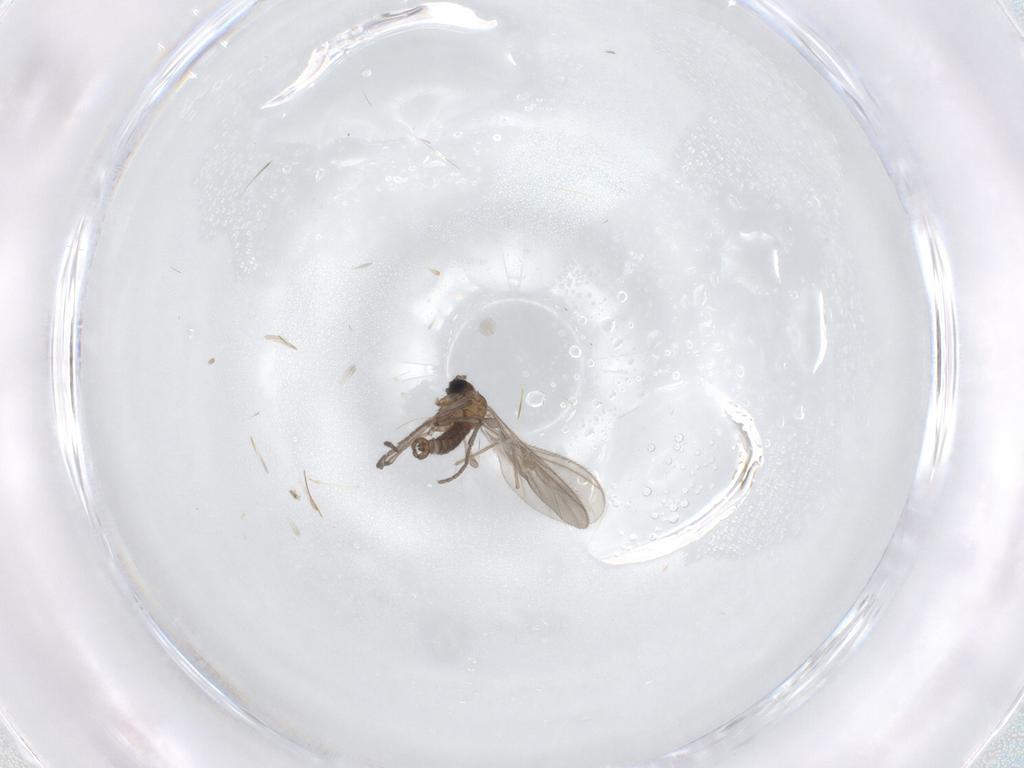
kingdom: Animalia
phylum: Arthropoda
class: Insecta
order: Diptera
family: Sciaridae
